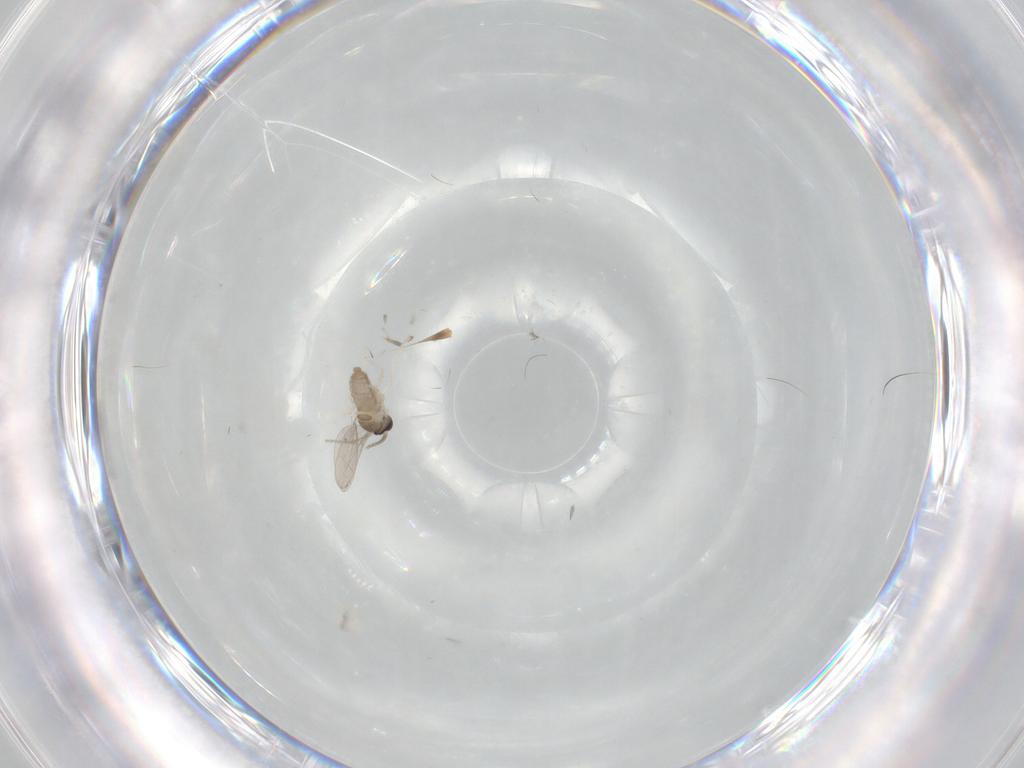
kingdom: Animalia
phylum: Arthropoda
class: Insecta
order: Diptera
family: Cecidomyiidae
